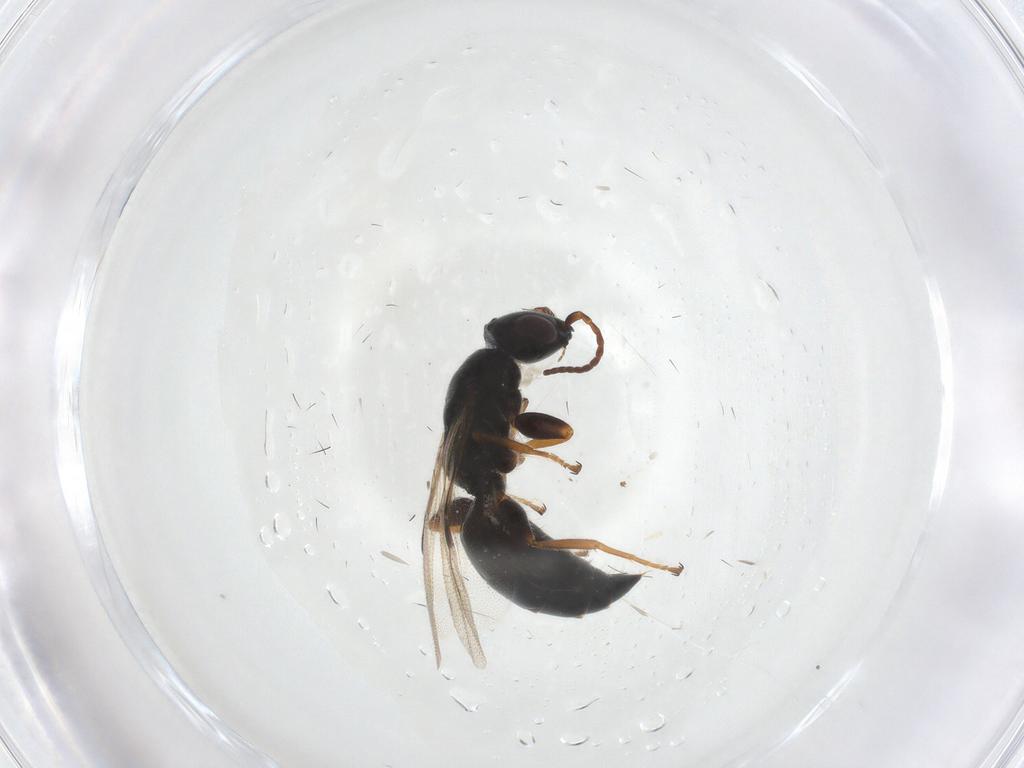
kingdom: Animalia
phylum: Arthropoda
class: Insecta
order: Hymenoptera
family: Bethylidae
